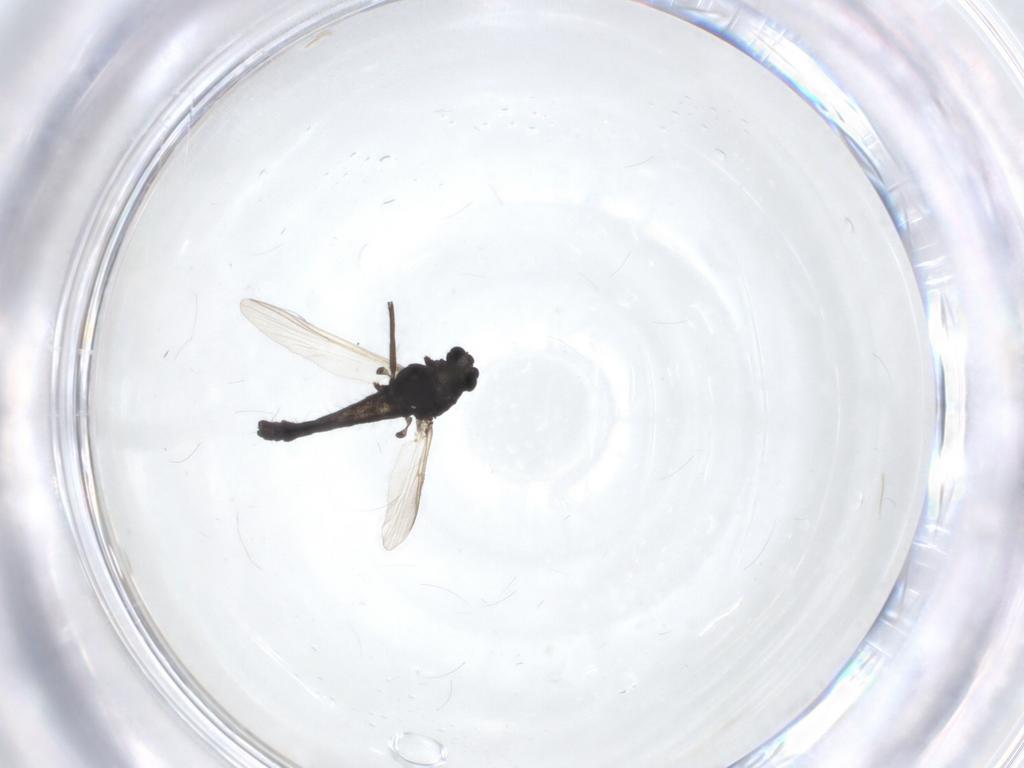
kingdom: Animalia
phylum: Arthropoda
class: Insecta
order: Diptera
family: Chironomidae
